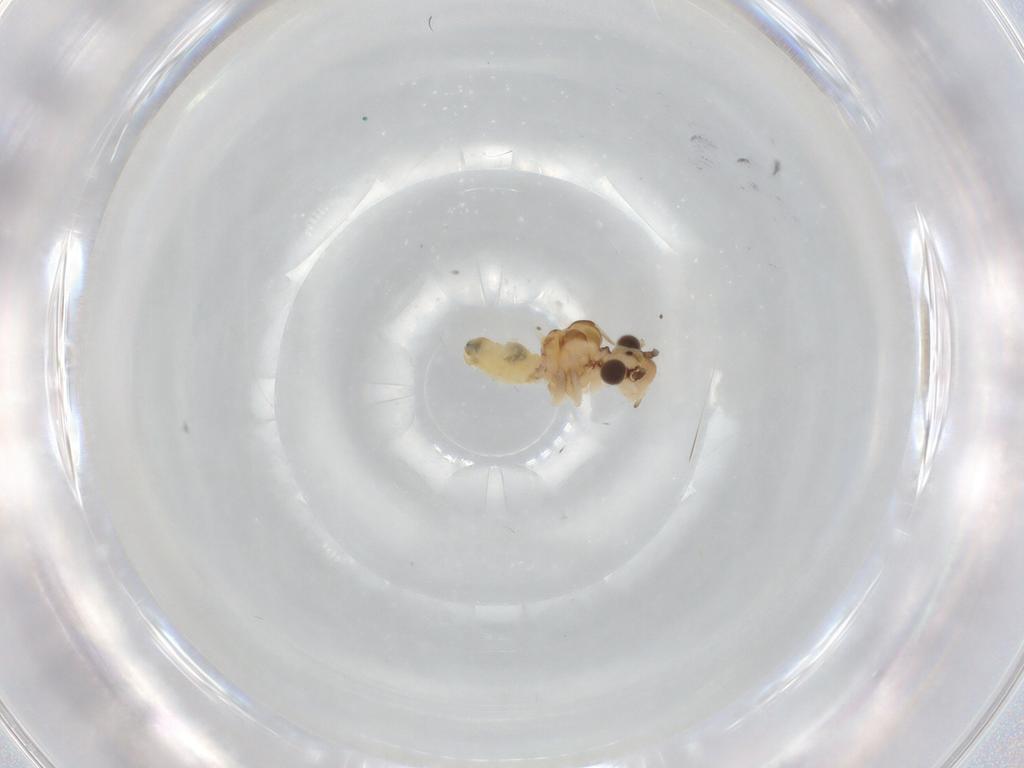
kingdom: Animalia
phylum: Arthropoda
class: Insecta
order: Psocodea
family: Caeciliusidae
